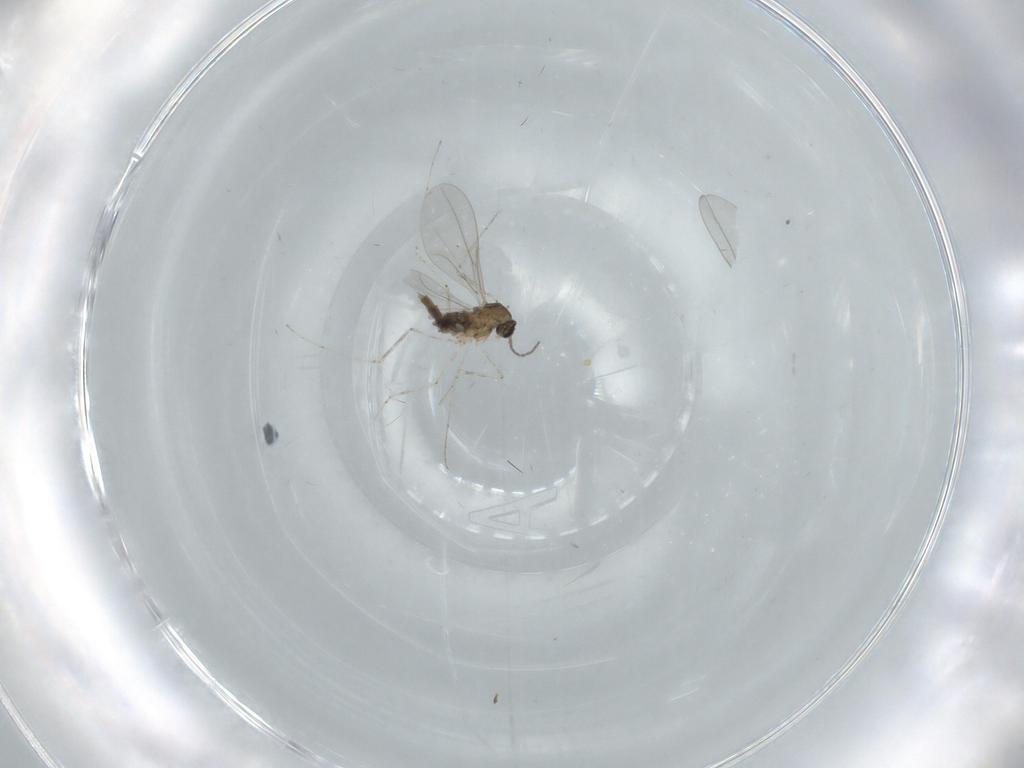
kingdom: Animalia
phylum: Arthropoda
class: Insecta
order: Diptera
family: Cecidomyiidae
